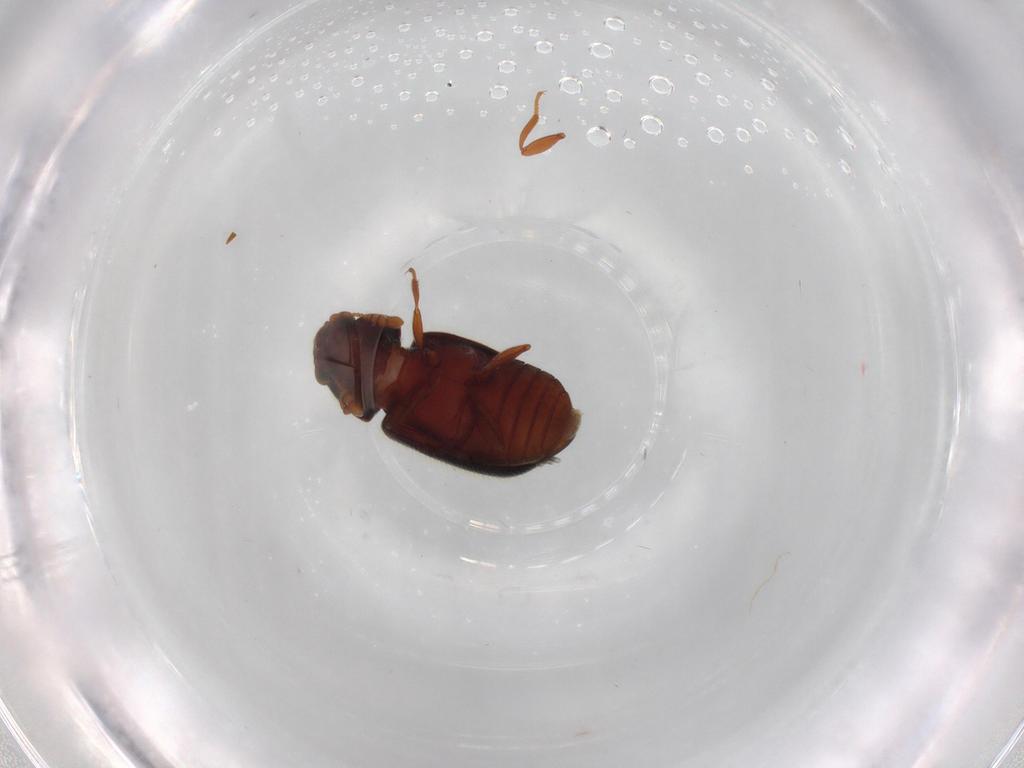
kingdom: Animalia
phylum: Arthropoda
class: Insecta
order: Coleoptera
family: Sphindidae
